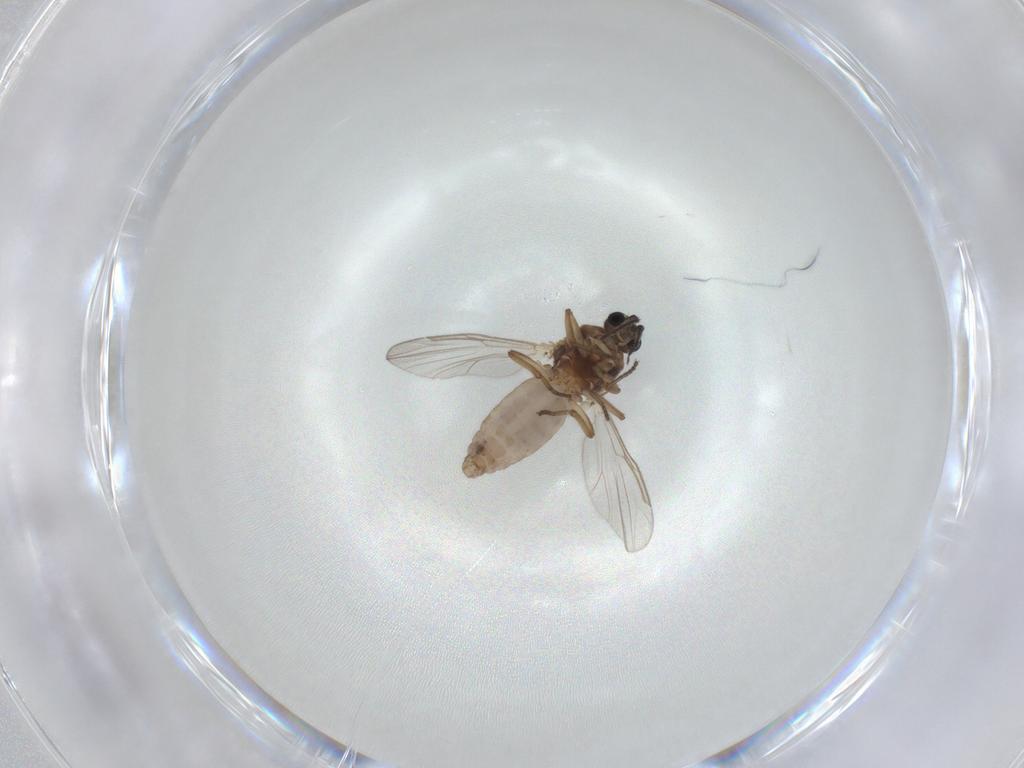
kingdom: Animalia
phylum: Arthropoda
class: Insecta
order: Diptera
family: Ceratopogonidae
